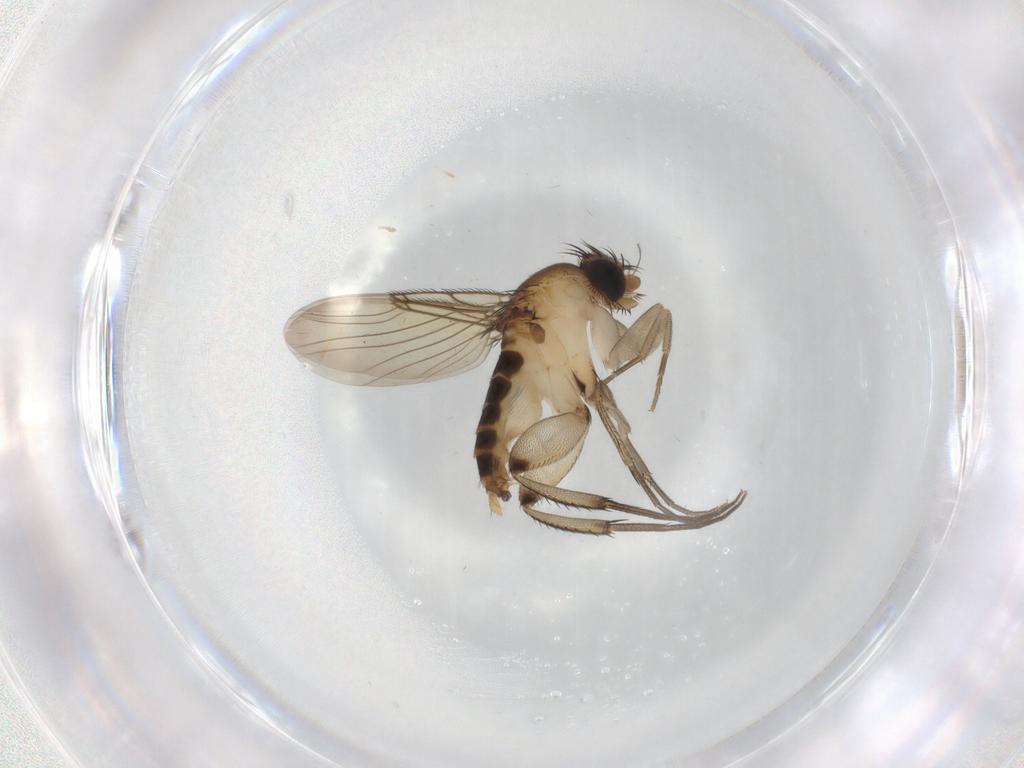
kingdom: Animalia
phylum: Arthropoda
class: Insecta
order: Diptera
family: Phoridae
